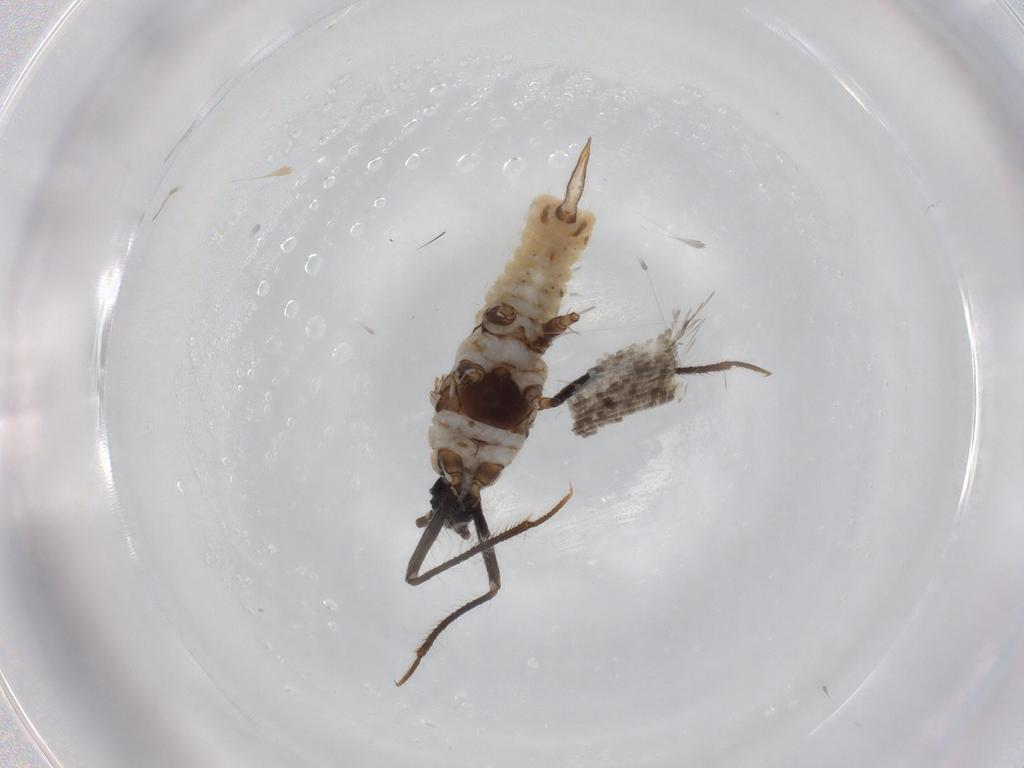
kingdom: Animalia
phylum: Arthropoda
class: Insecta
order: Hemiptera
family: Putoidae
